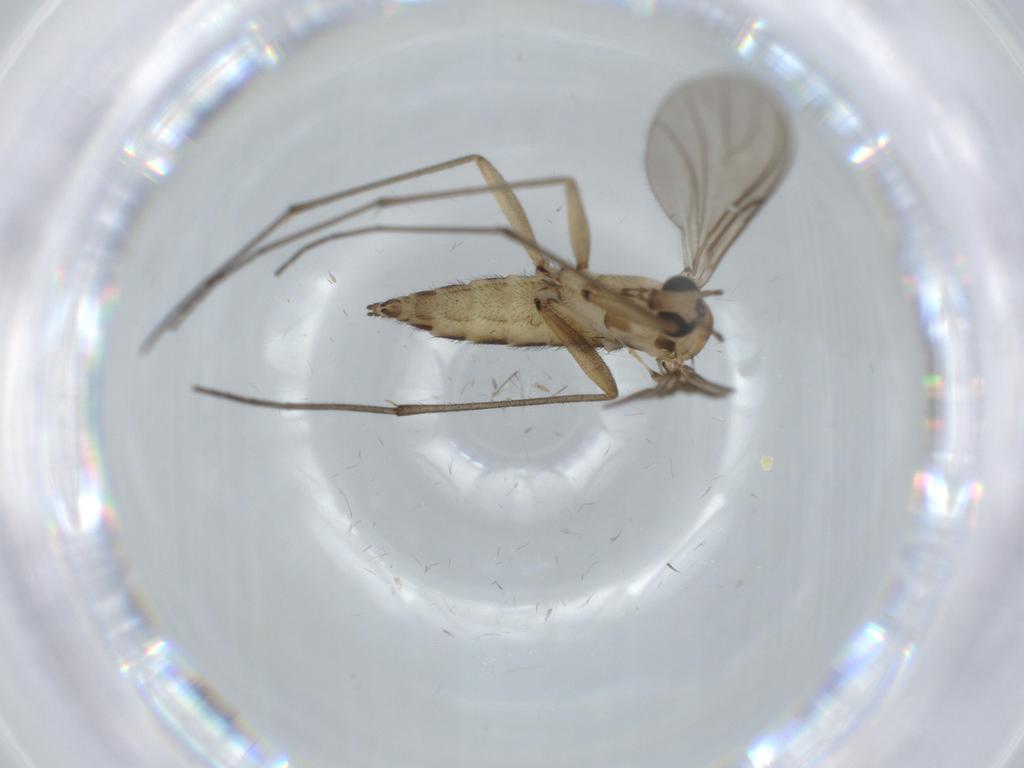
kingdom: Animalia
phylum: Arthropoda
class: Insecta
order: Diptera
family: Sciaridae
